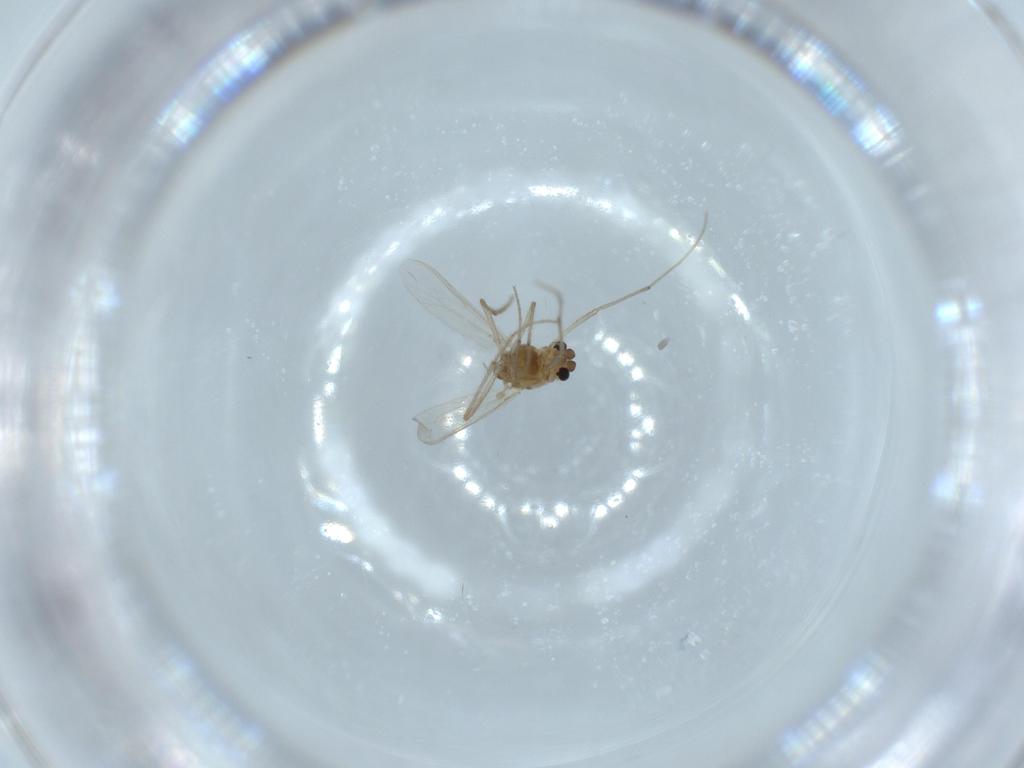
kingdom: Animalia
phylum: Arthropoda
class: Insecta
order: Diptera
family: Chironomidae
